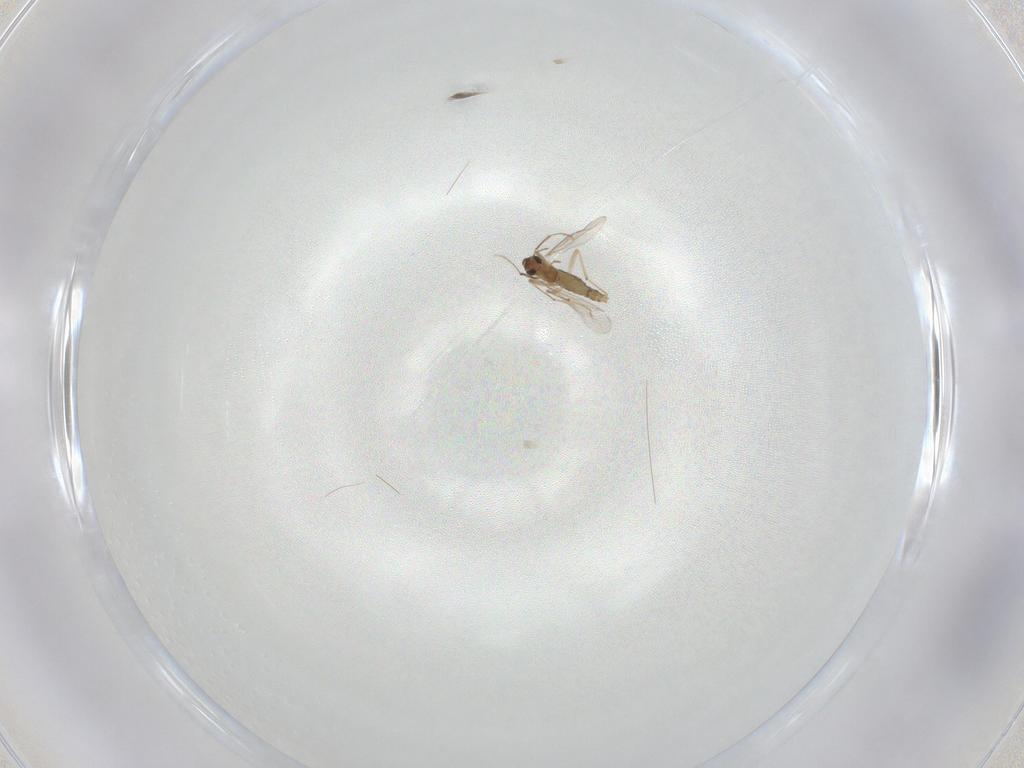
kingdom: Animalia
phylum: Arthropoda
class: Insecta
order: Diptera
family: Chironomidae
